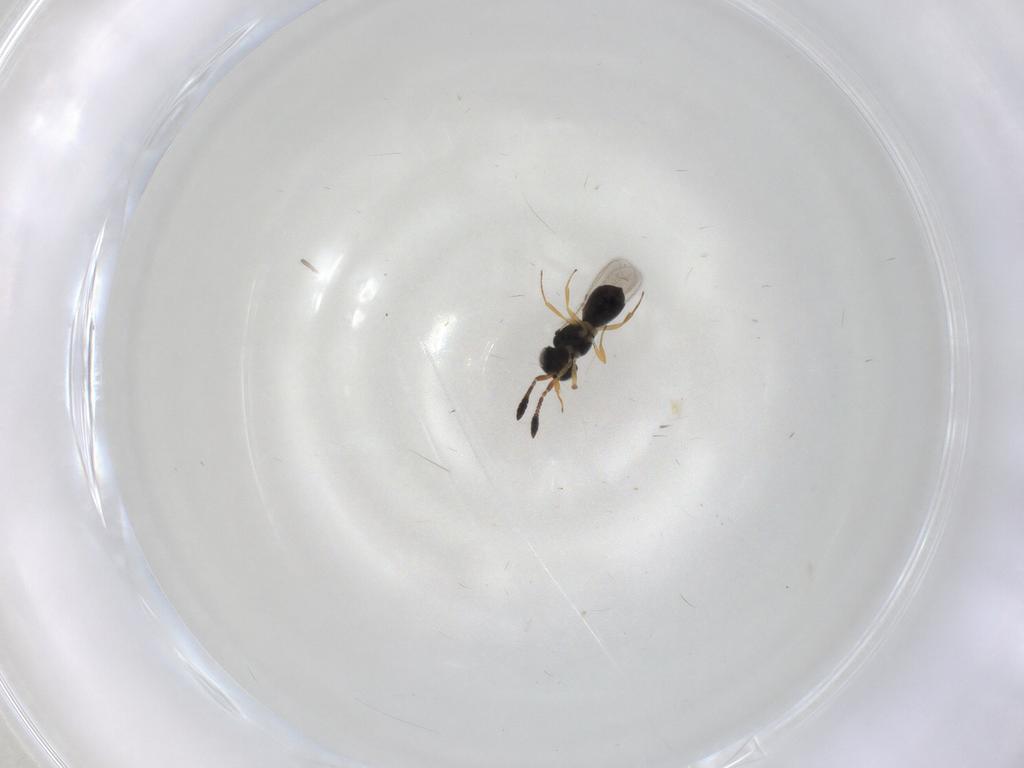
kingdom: Animalia
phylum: Arthropoda
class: Insecta
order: Hymenoptera
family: Scelionidae
